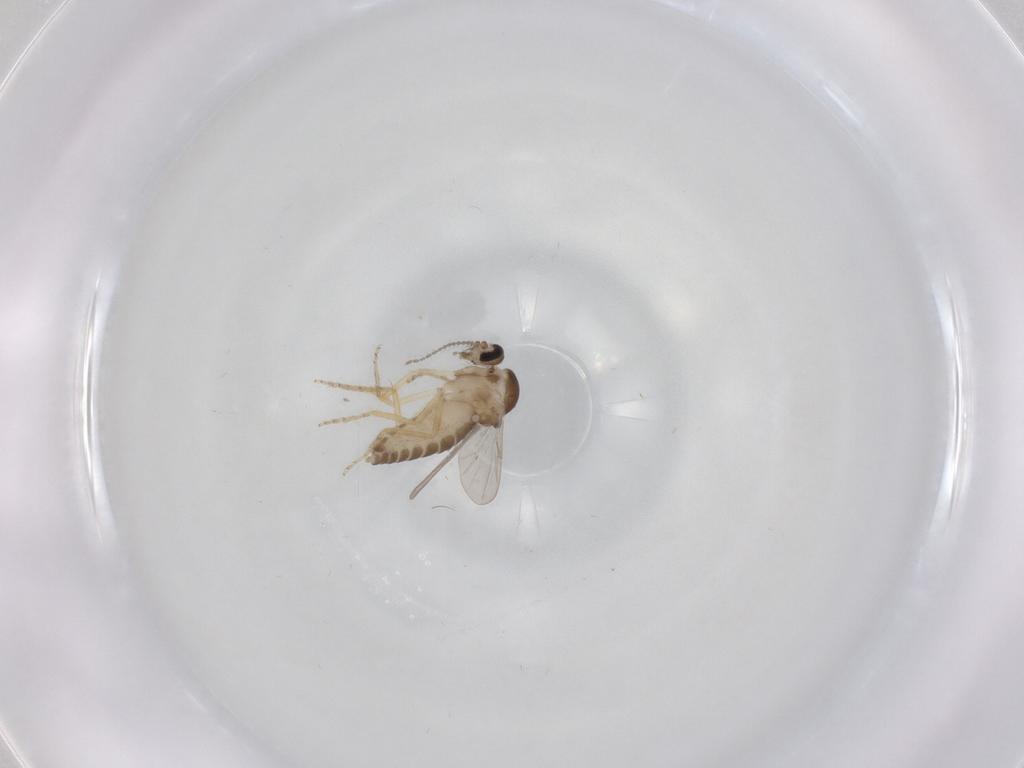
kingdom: Animalia
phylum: Arthropoda
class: Insecta
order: Diptera
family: Ceratopogonidae
